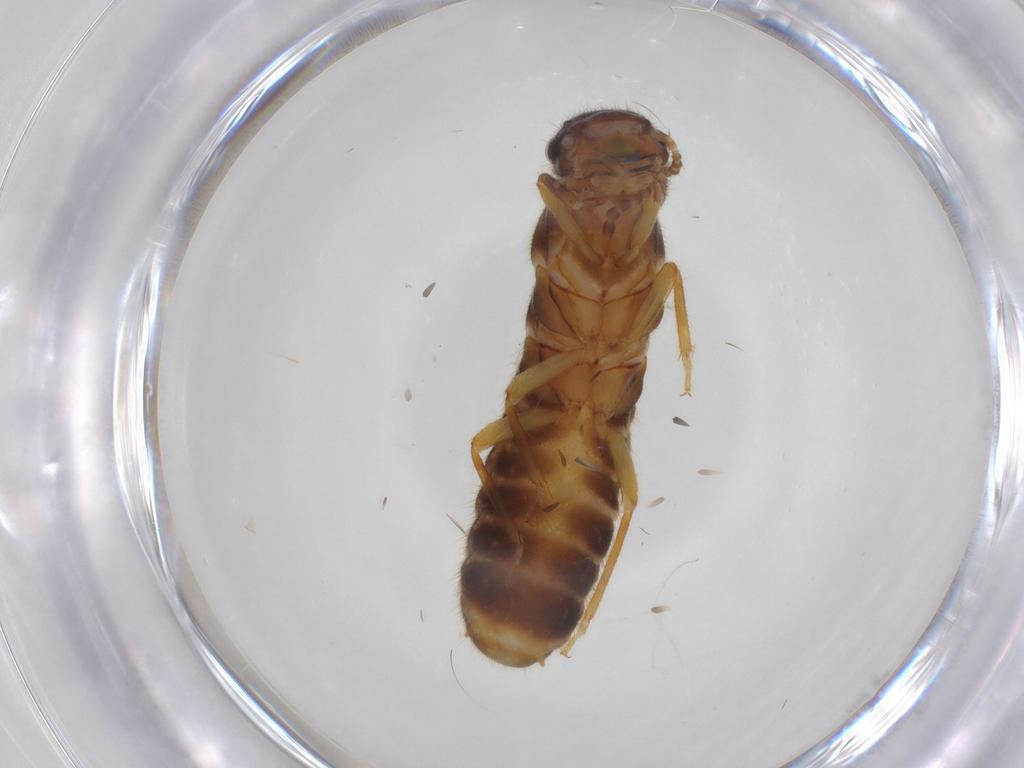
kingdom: Animalia
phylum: Arthropoda
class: Insecta
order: Blattodea
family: Termitidae
